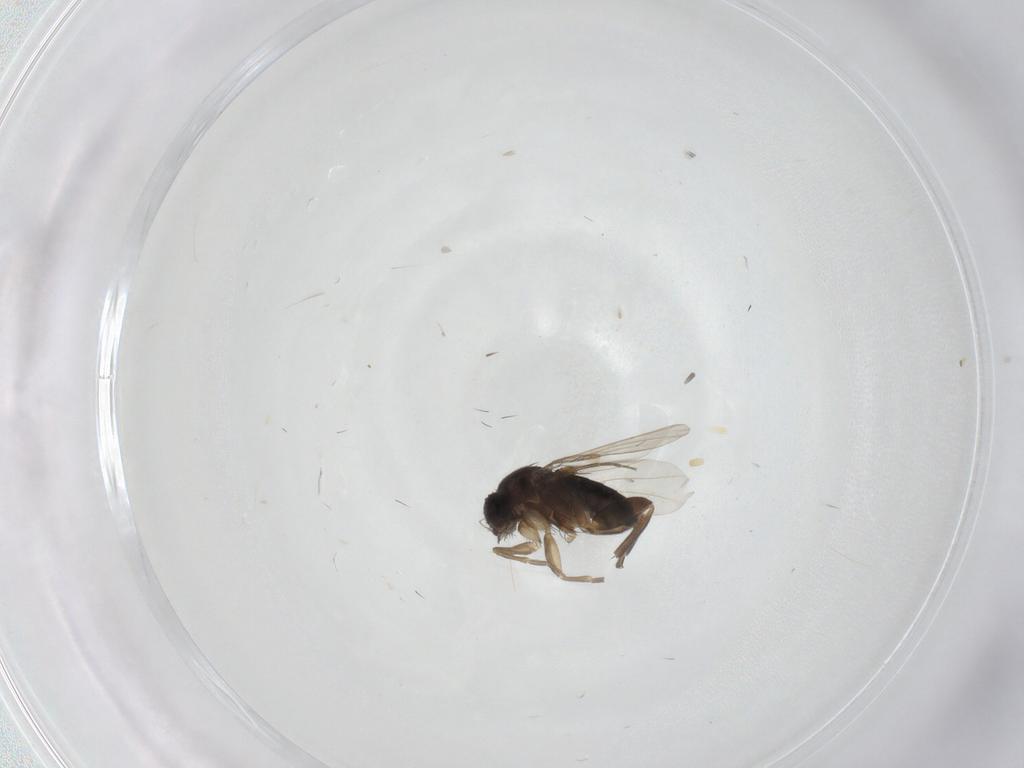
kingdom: Animalia
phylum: Arthropoda
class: Insecta
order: Diptera
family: Phoridae
